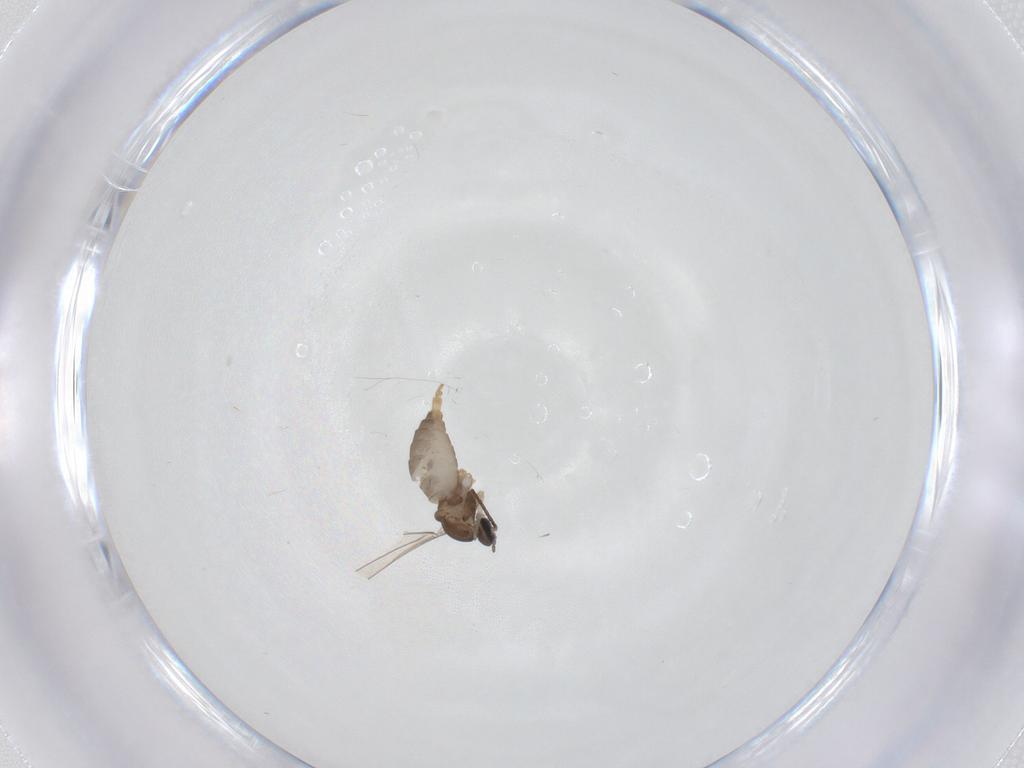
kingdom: Animalia
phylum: Arthropoda
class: Insecta
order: Diptera
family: Cecidomyiidae
